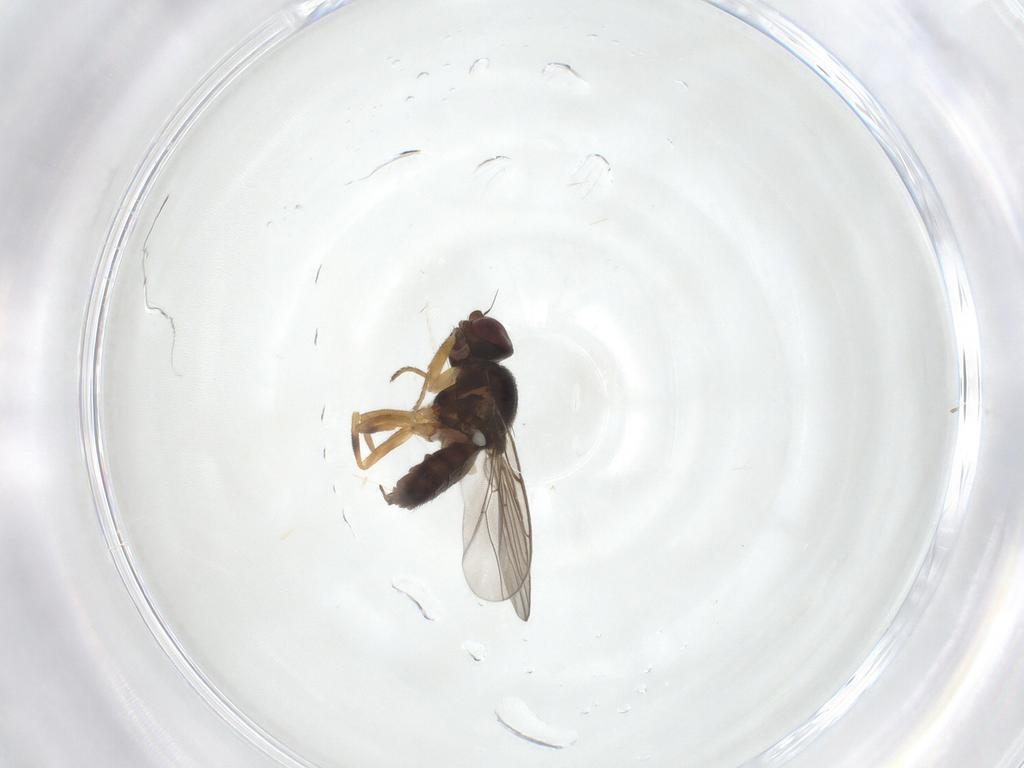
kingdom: Animalia
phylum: Arthropoda
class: Insecta
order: Diptera
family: Chloropidae
